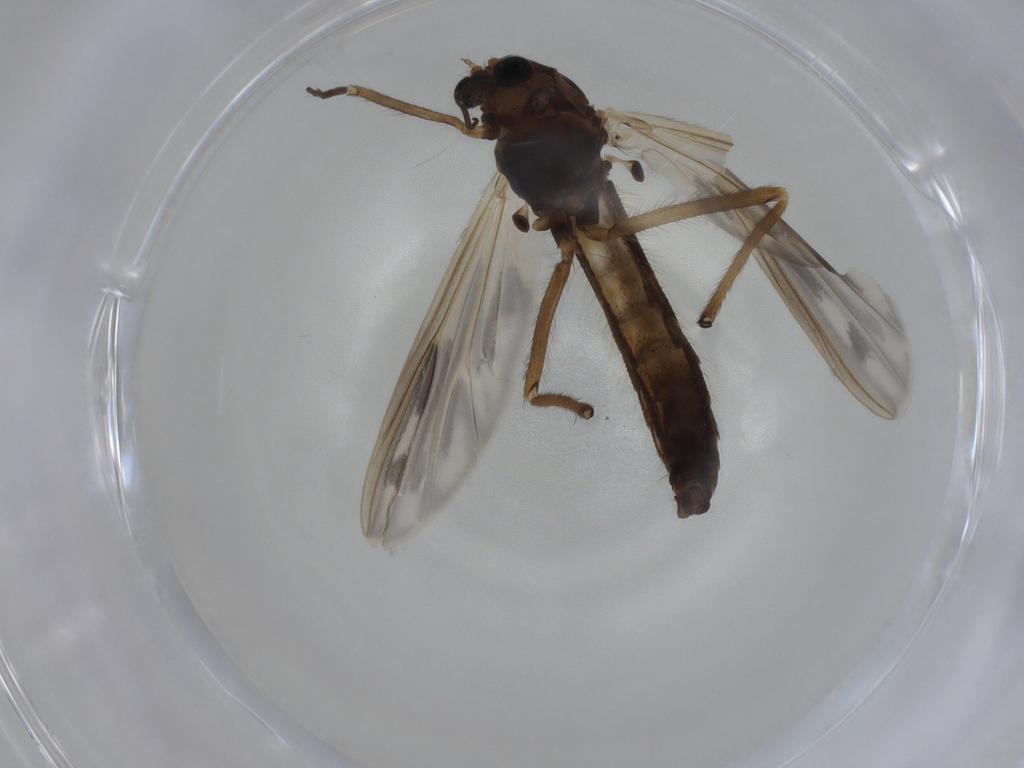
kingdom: Animalia
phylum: Arthropoda
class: Insecta
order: Diptera
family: Chironomidae
